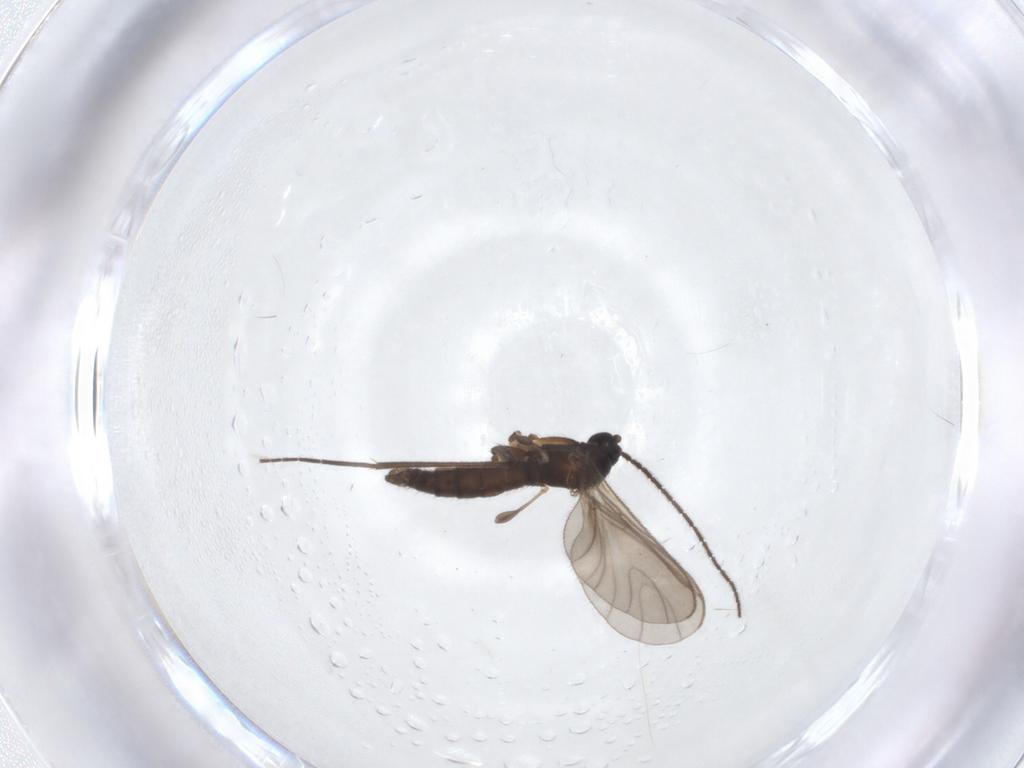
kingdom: Animalia
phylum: Arthropoda
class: Insecta
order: Diptera
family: Sciaridae
